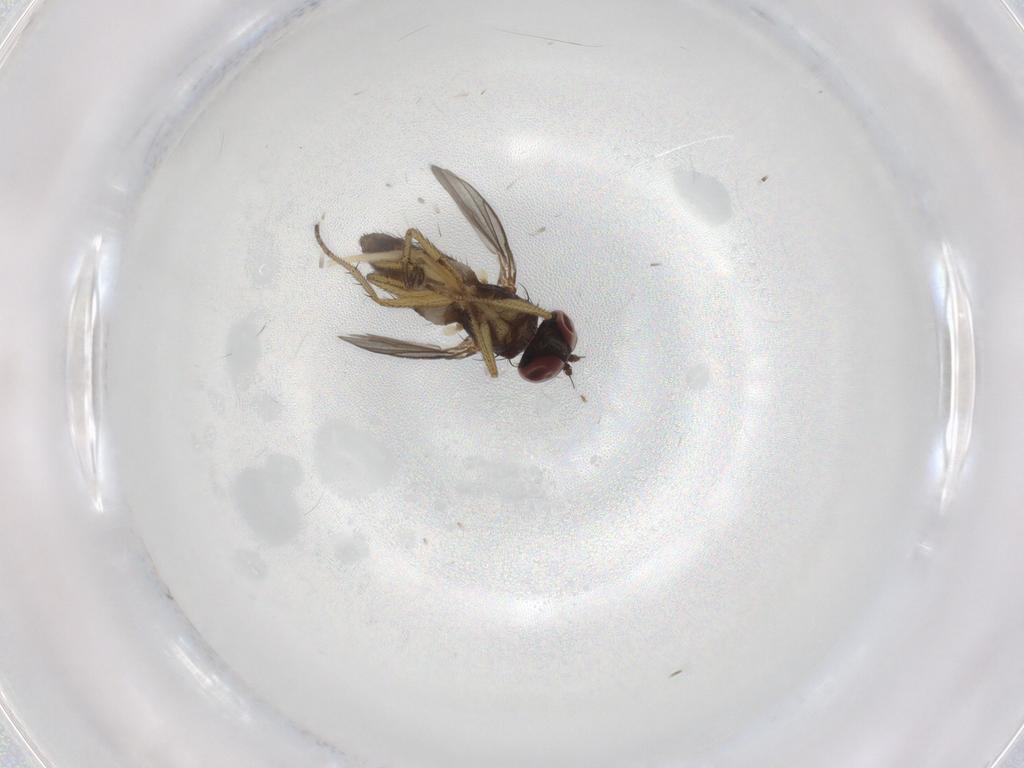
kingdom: Animalia
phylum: Arthropoda
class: Insecta
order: Diptera
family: Dolichopodidae
